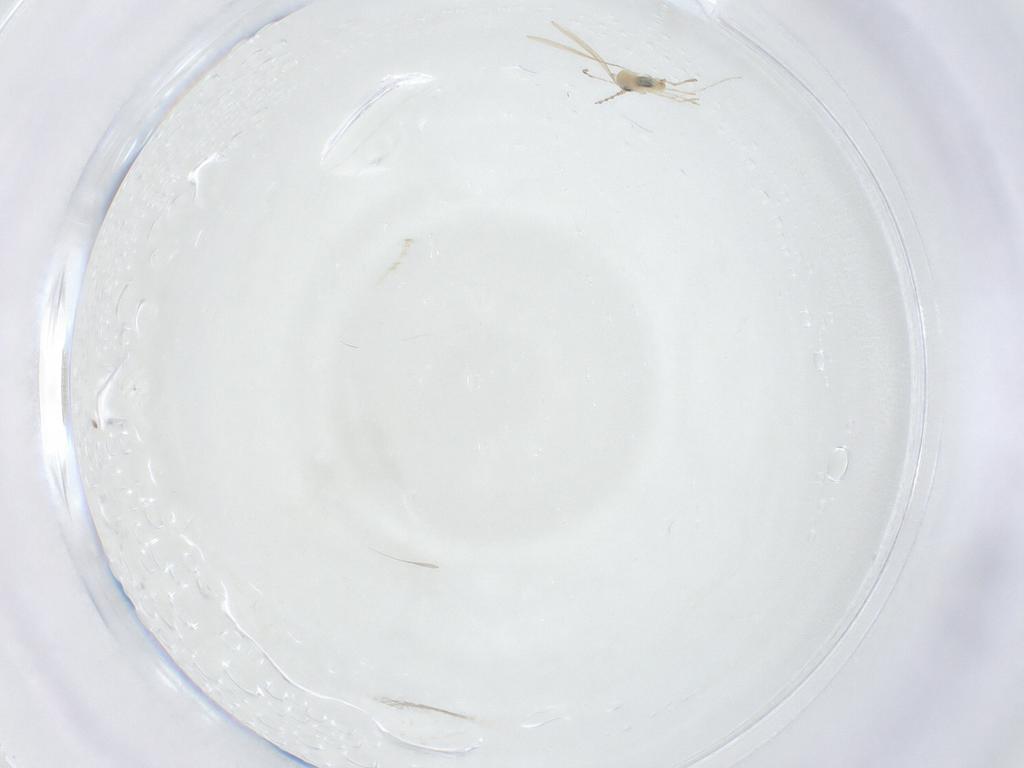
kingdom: Animalia
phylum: Arthropoda
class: Insecta
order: Diptera
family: Sciaridae
